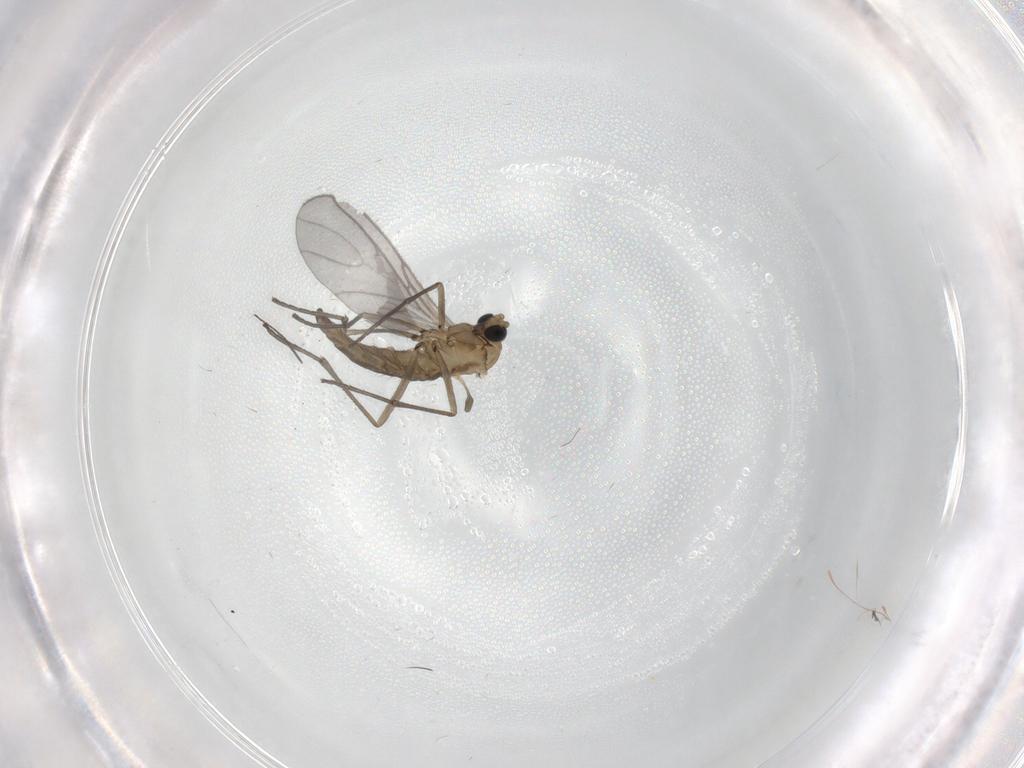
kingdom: Animalia
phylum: Arthropoda
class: Insecta
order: Diptera
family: Sciaridae
